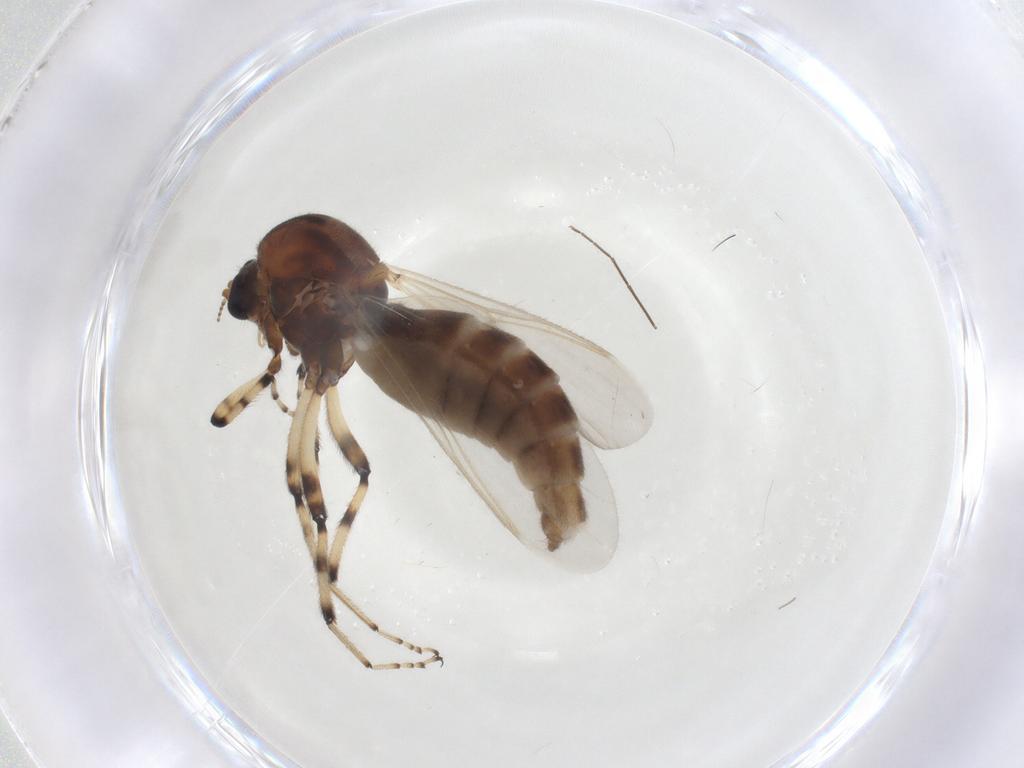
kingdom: Animalia
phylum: Arthropoda
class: Insecta
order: Diptera
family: Ceratopogonidae
